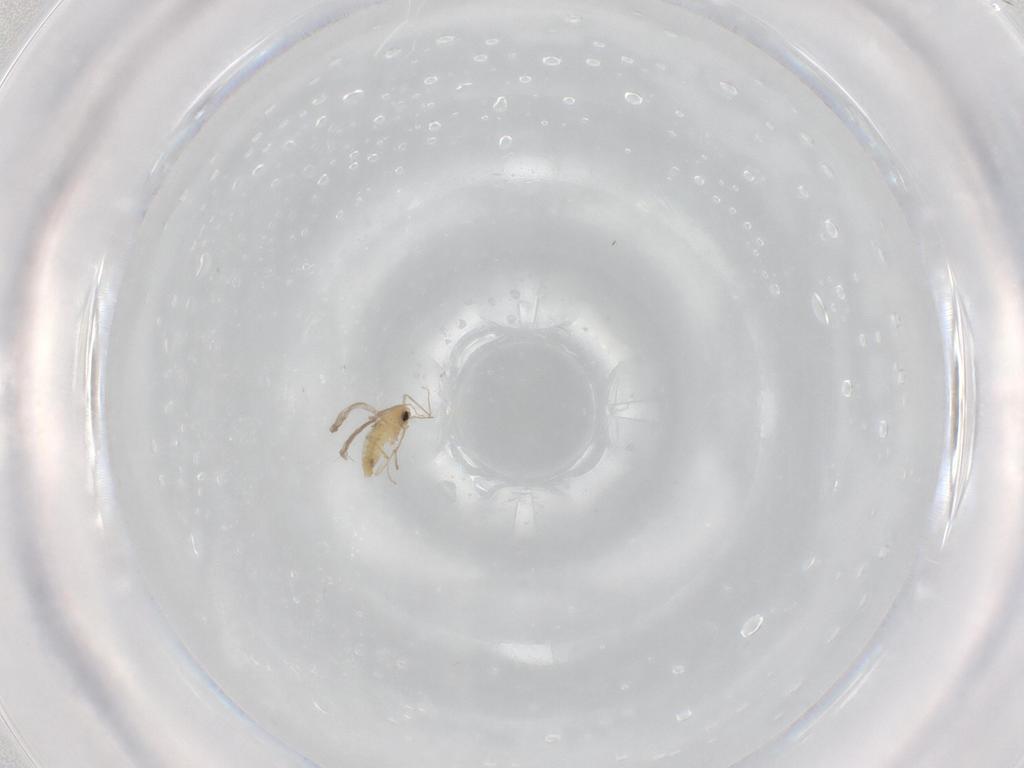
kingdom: Animalia
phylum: Arthropoda
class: Insecta
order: Diptera
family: Chironomidae
